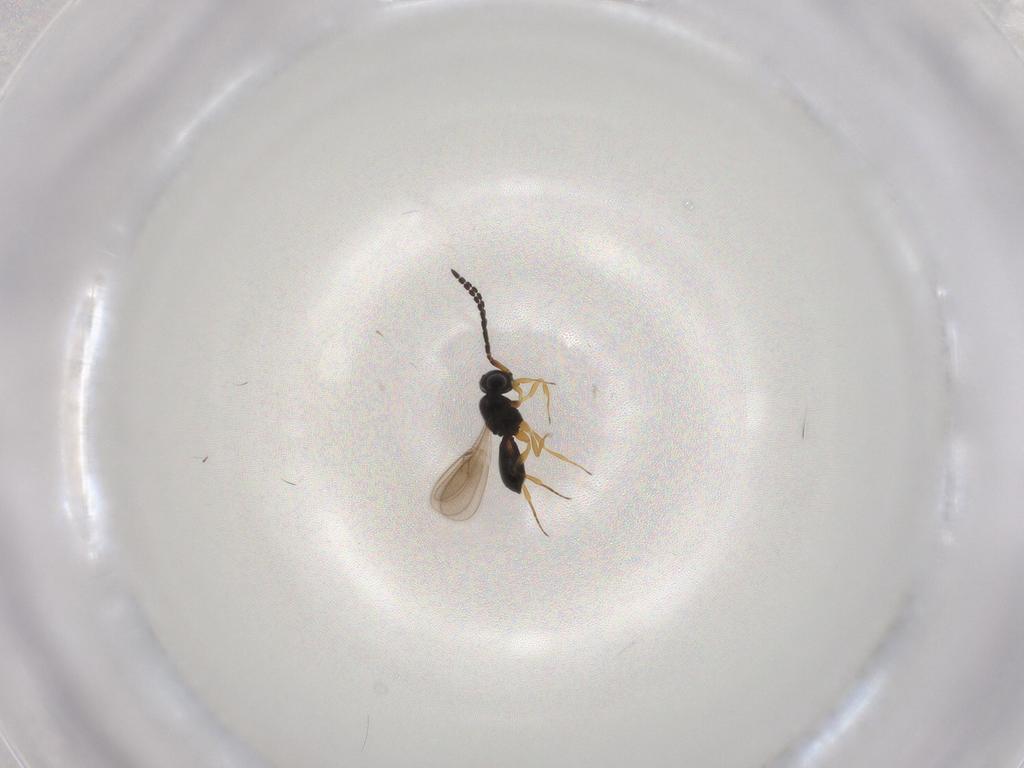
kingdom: Animalia
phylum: Arthropoda
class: Insecta
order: Hymenoptera
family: Scelionidae
